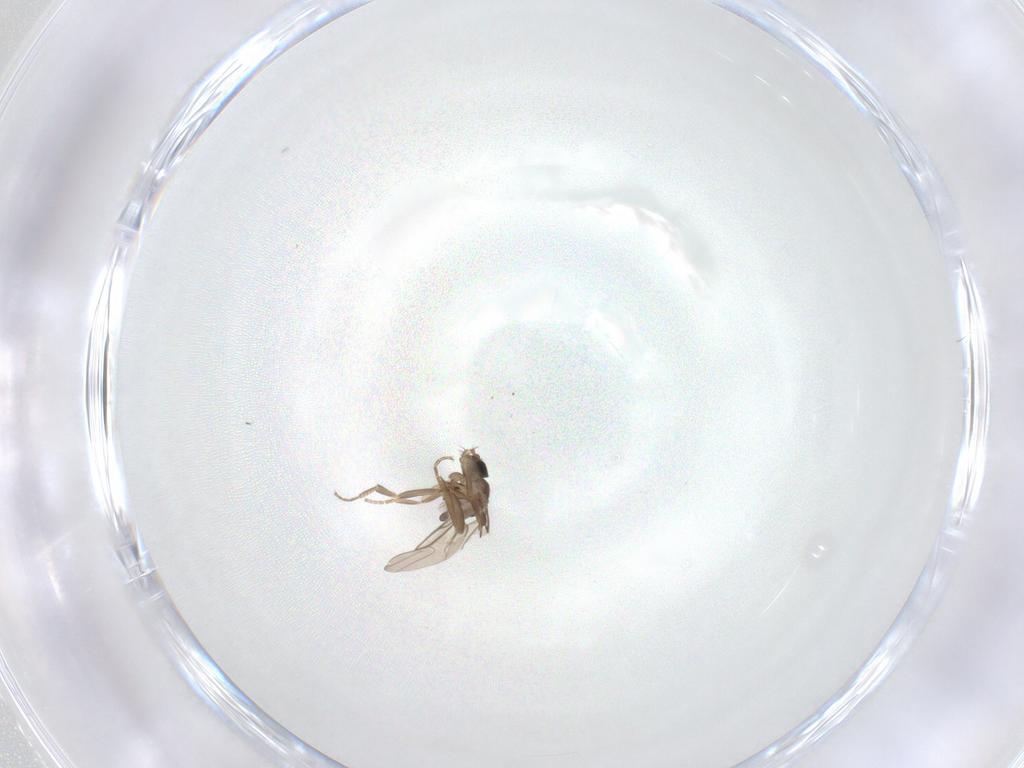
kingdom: Animalia
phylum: Arthropoda
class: Insecta
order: Diptera
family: Phoridae
